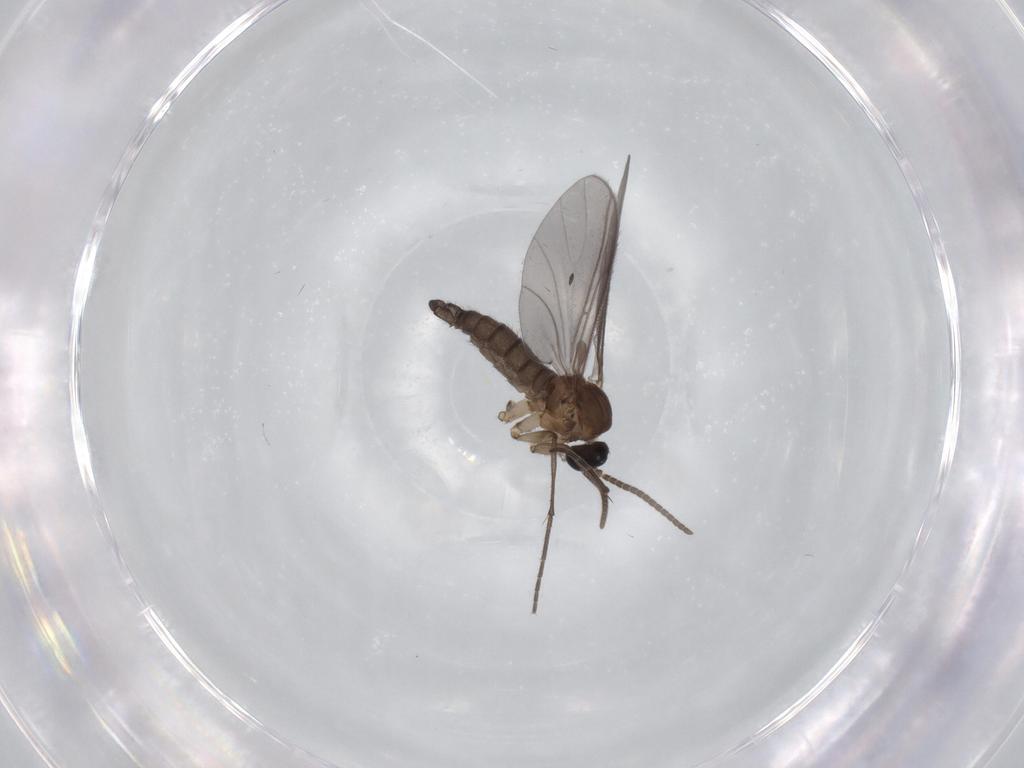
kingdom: Animalia
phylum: Arthropoda
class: Insecta
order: Diptera
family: Sciaridae
